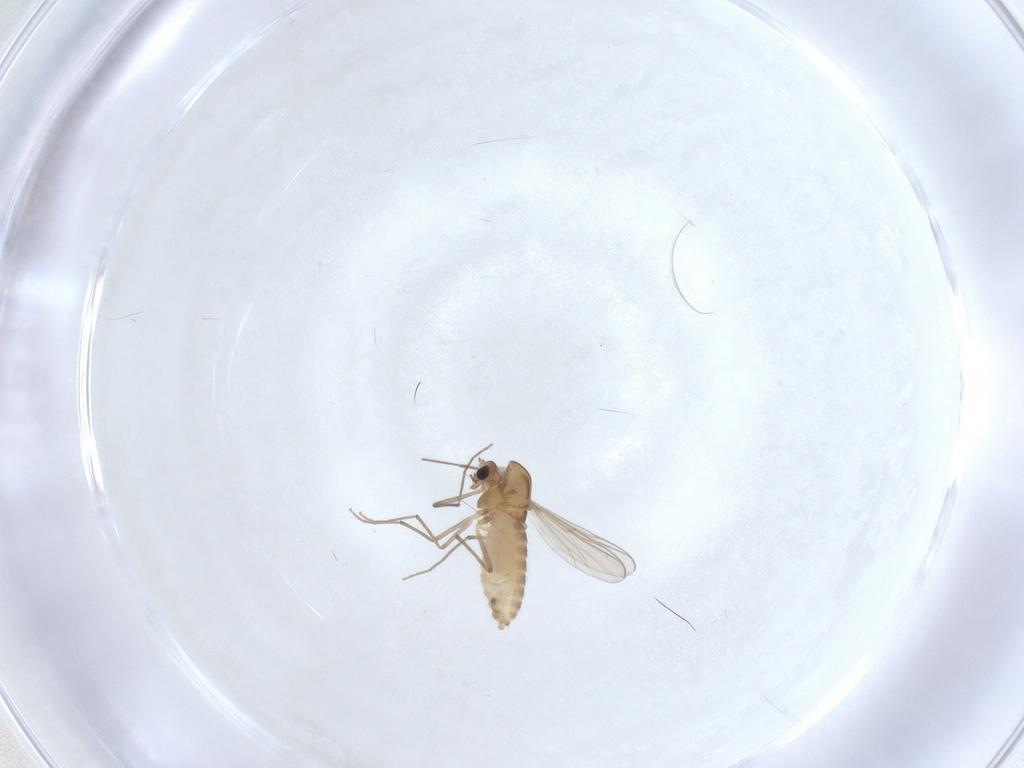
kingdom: Animalia
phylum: Arthropoda
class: Insecta
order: Diptera
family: Chironomidae
